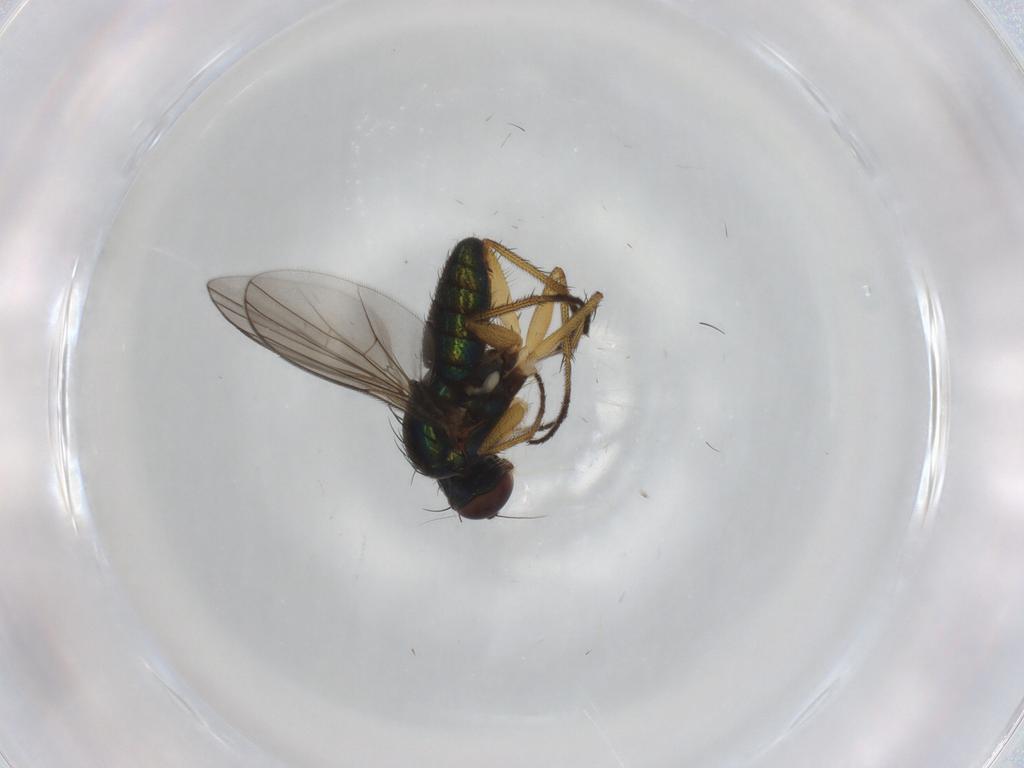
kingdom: Animalia
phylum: Arthropoda
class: Insecta
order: Diptera
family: Dolichopodidae
